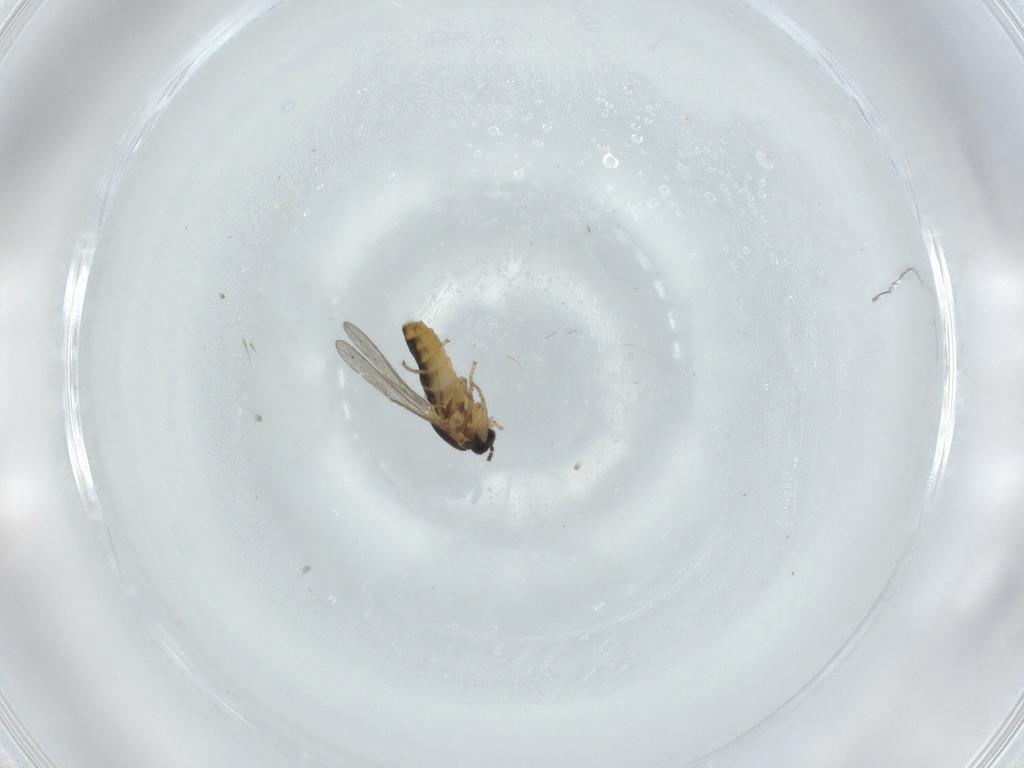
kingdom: Animalia
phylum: Arthropoda
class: Insecta
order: Diptera
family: Scatopsidae
